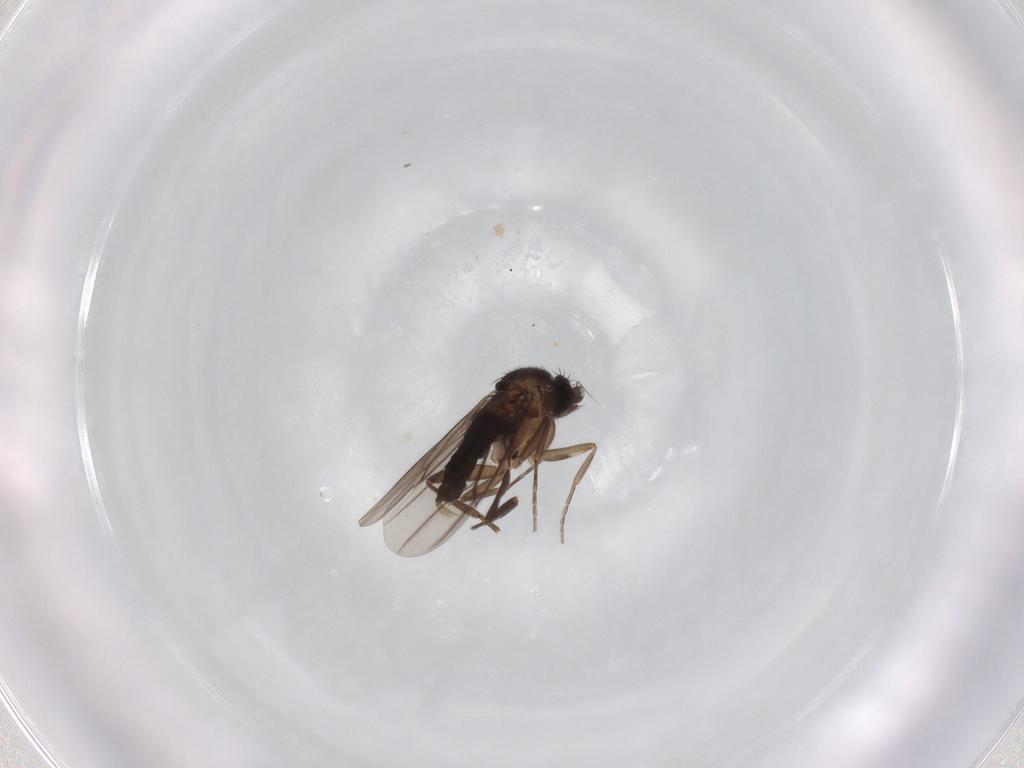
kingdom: Animalia
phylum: Arthropoda
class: Insecta
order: Diptera
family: Phoridae
